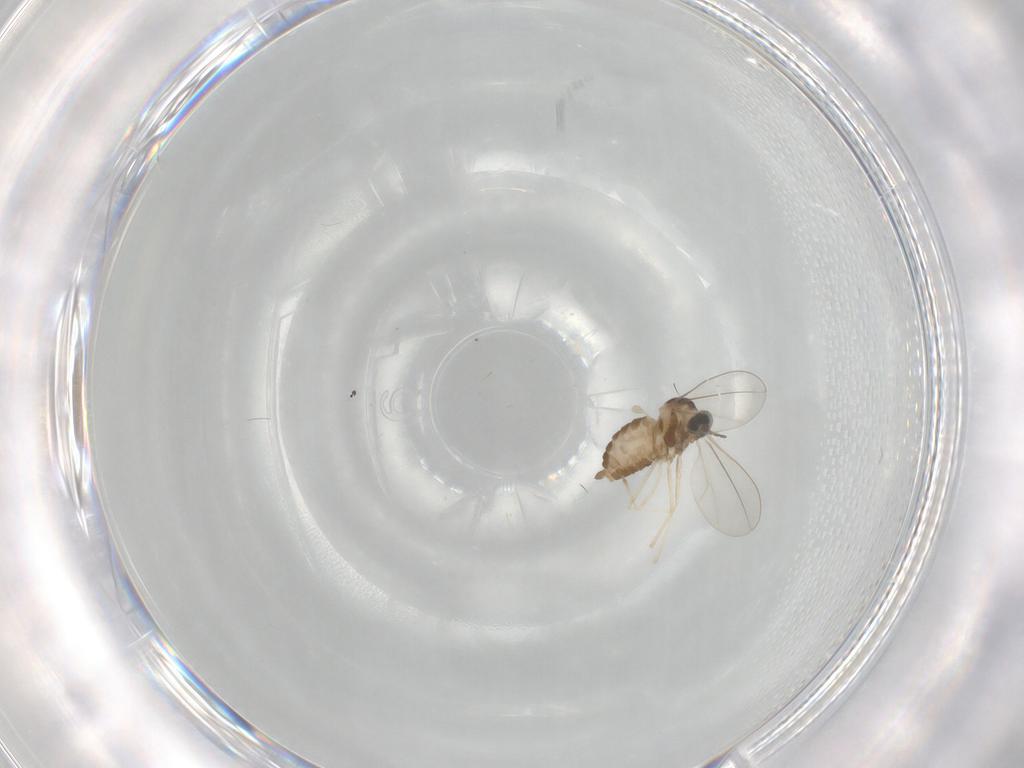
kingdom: Animalia
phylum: Arthropoda
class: Insecta
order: Diptera
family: Cecidomyiidae
